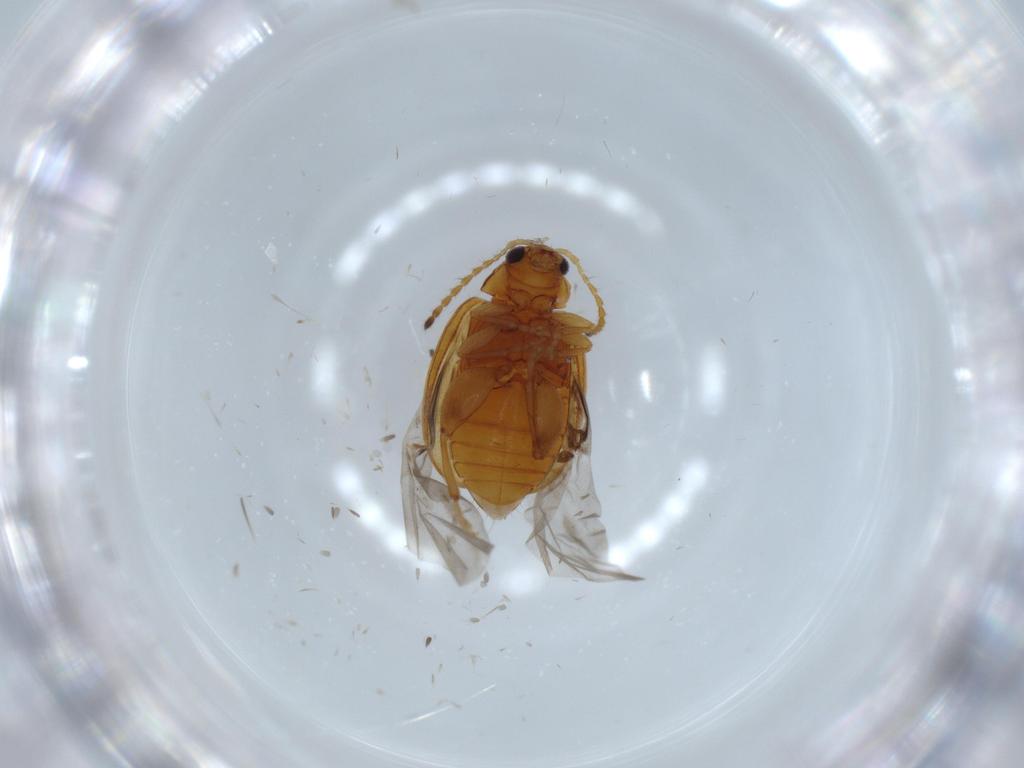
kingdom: Animalia
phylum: Arthropoda
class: Insecta
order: Coleoptera
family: Chrysomelidae
